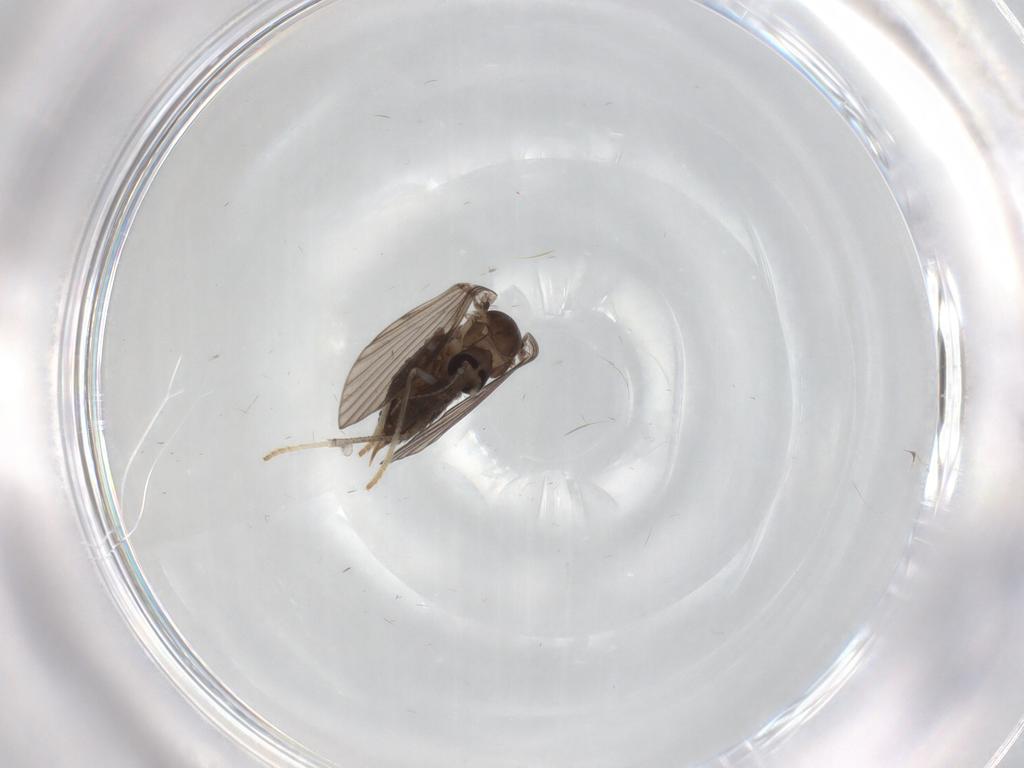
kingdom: Animalia
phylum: Arthropoda
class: Insecta
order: Diptera
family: Psychodidae
